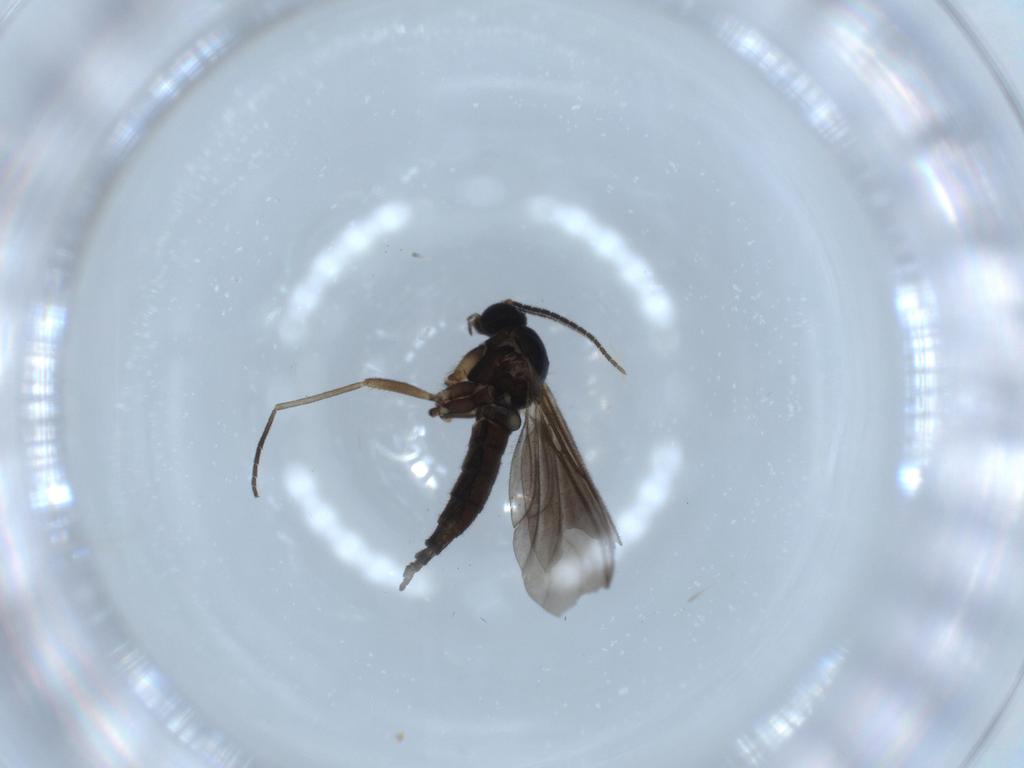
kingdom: Animalia
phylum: Arthropoda
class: Insecta
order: Diptera
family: Sciaridae
